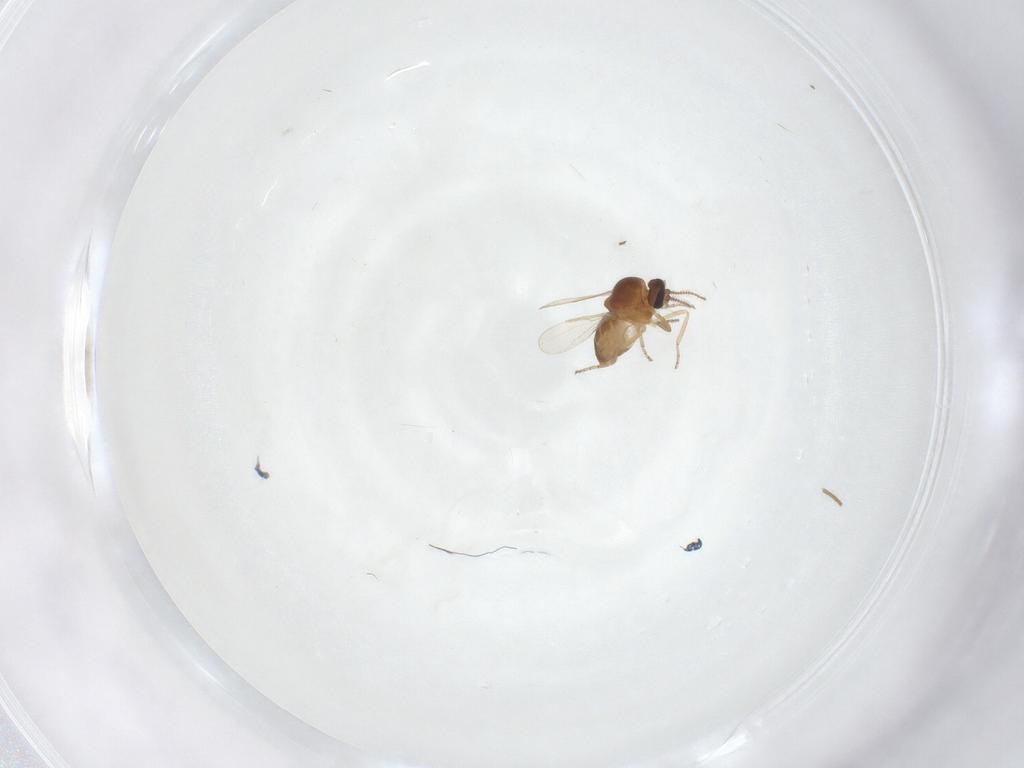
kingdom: Animalia
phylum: Arthropoda
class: Insecta
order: Diptera
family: Ceratopogonidae
